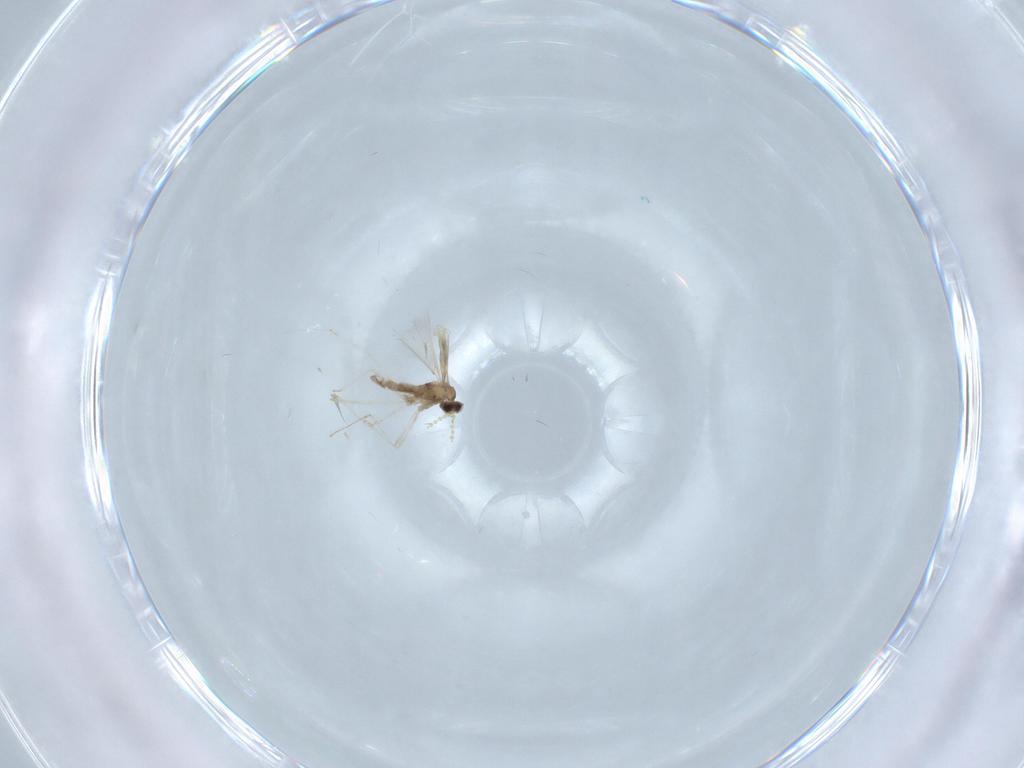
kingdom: Animalia
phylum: Arthropoda
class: Insecta
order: Diptera
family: Cecidomyiidae
